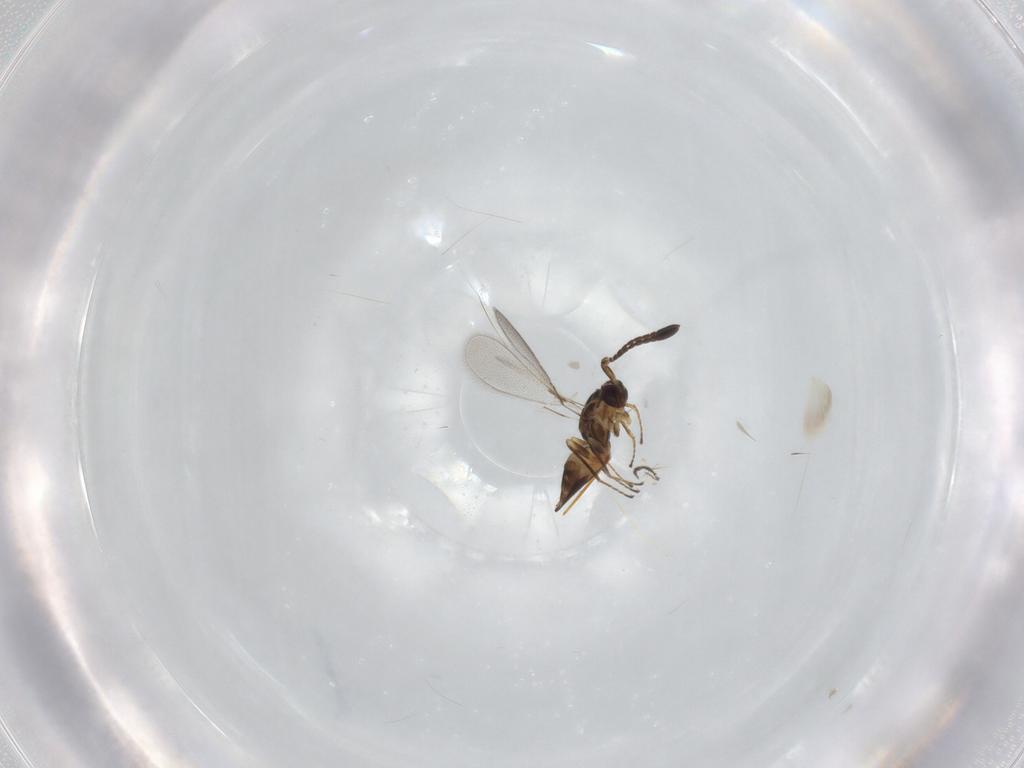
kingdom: Animalia
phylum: Arthropoda
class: Insecta
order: Hymenoptera
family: Mymaridae
